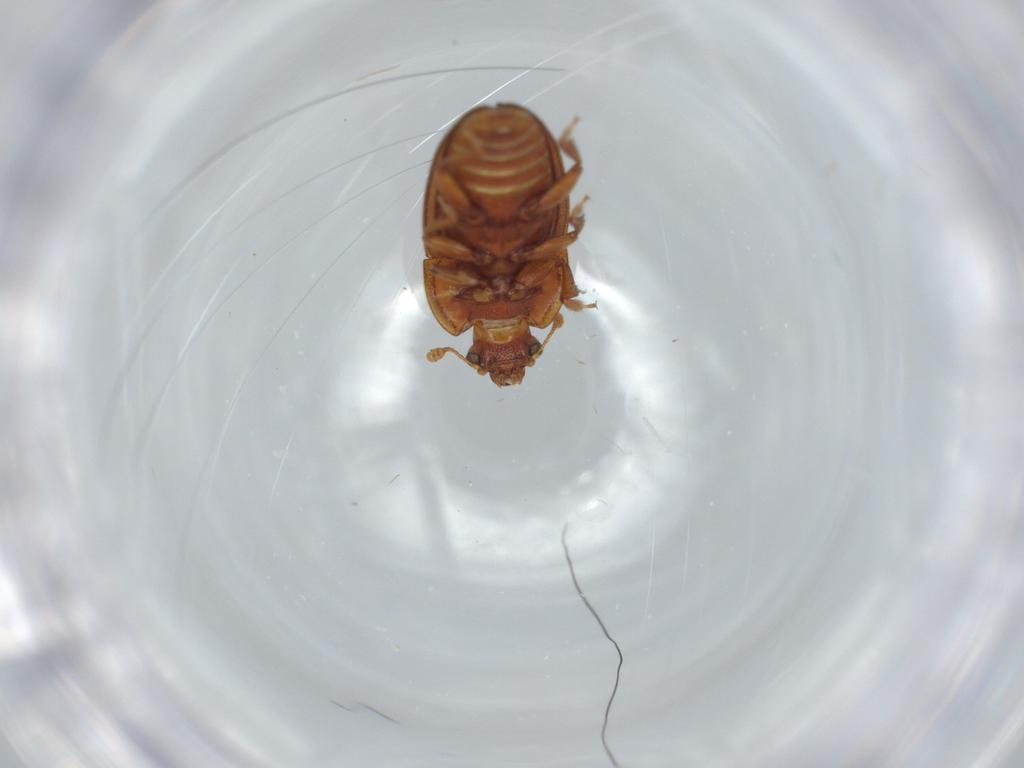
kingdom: Animalia
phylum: Arthropoda
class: Insecta
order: Coleoptera
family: Nitidulidae
